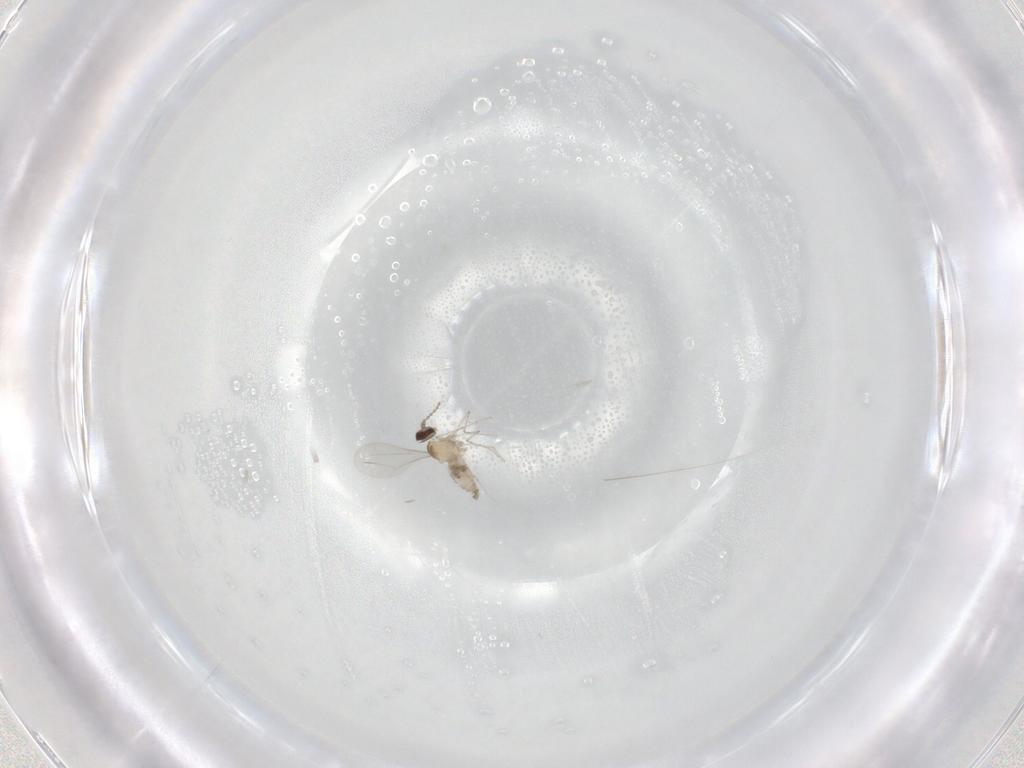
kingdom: Animalia
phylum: Arthropoda
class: Insecta
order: Diptera
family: Cecidomyiidae
